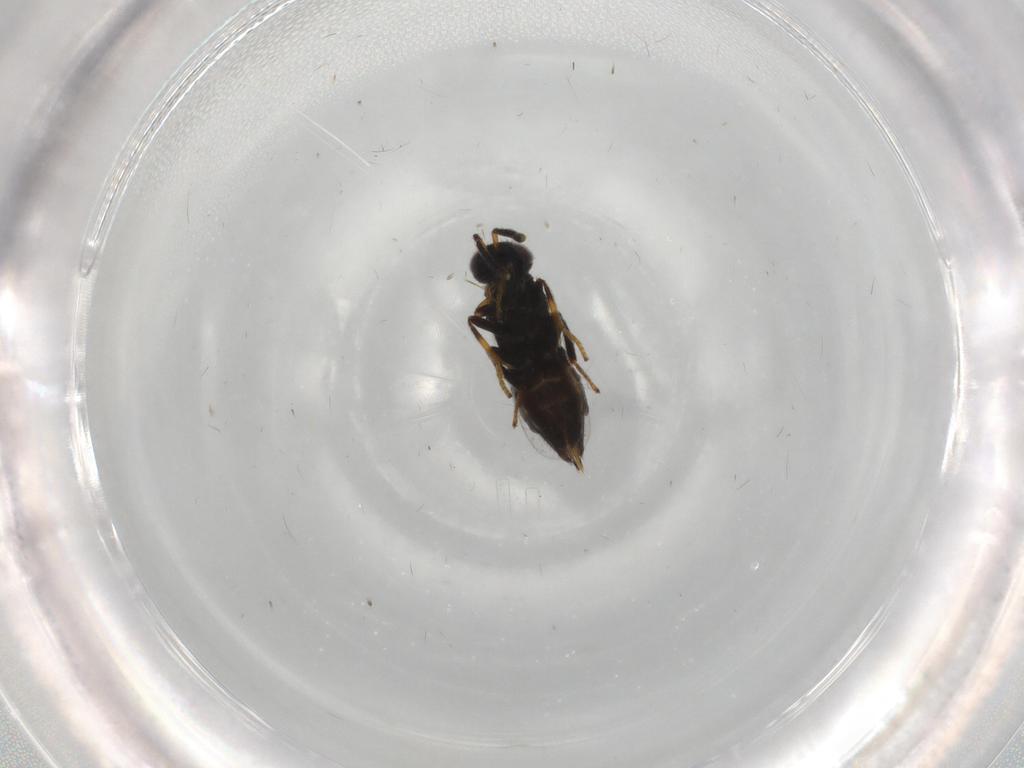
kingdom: Animalia
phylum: Arthropoda
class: Insecta
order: Hymenoptera
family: Encyrtidae
